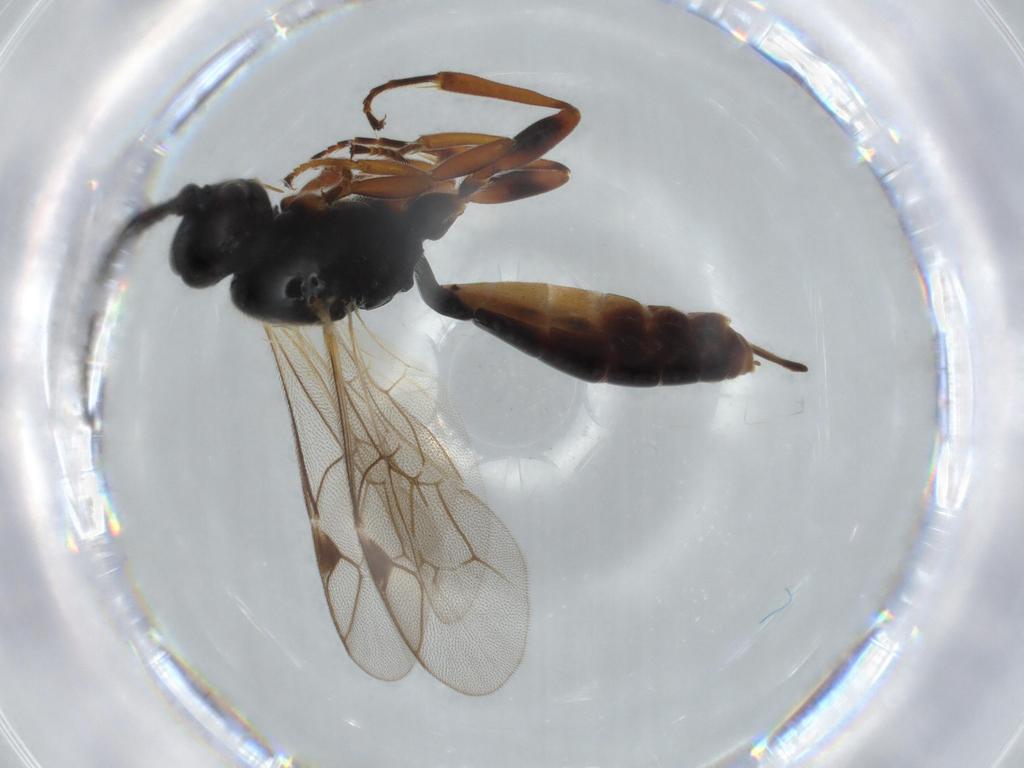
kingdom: Animalia
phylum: Arthropoda
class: Insecta
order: Hymenoptera
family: Ichneumonidae
